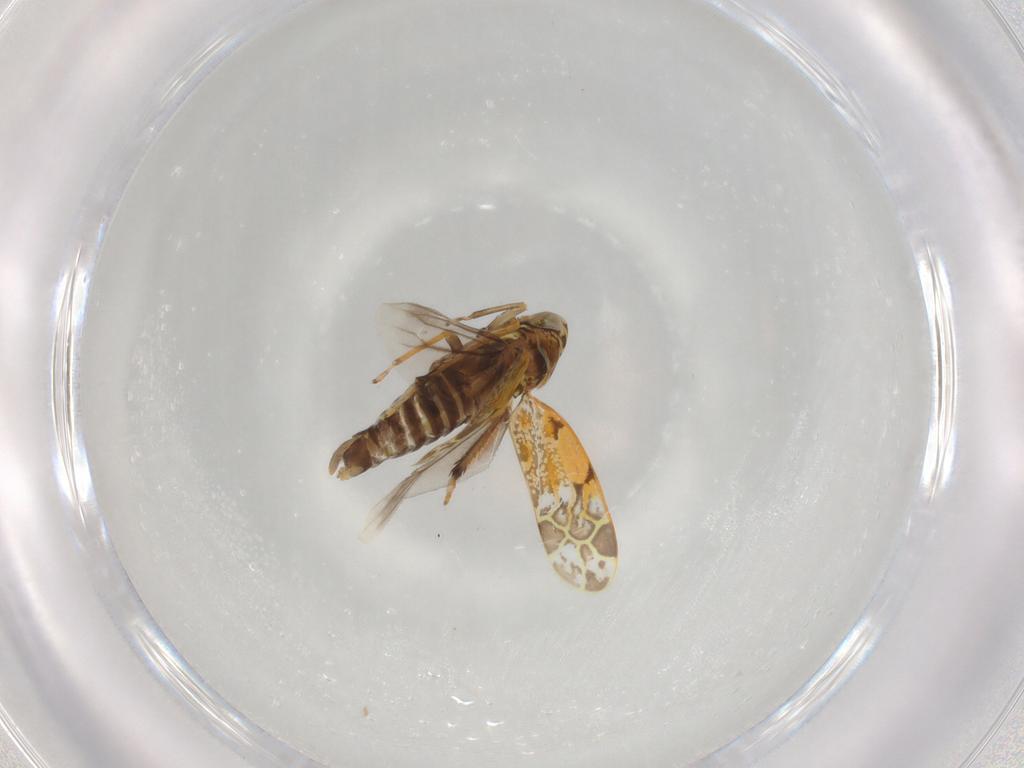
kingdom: Animalia
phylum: Arthropoda
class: Insecta
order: Hemiptera
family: Cicadellidae
